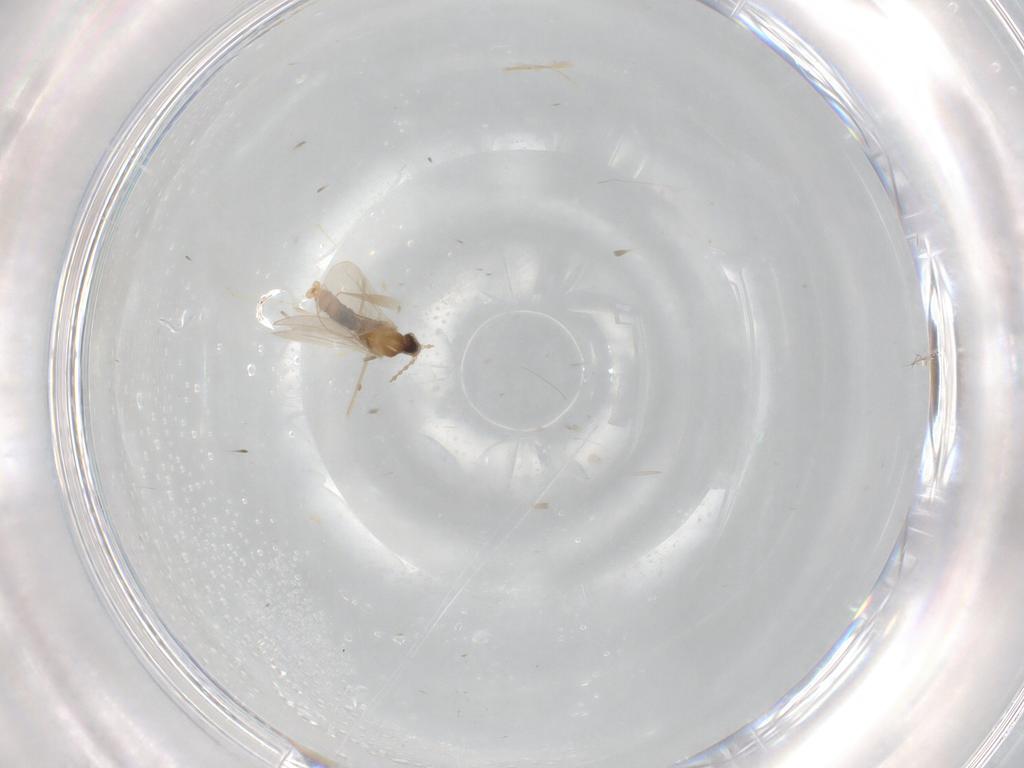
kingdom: Animalia
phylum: Arthropoda
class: Insecta
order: Diptera
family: Cecidomyiidae
